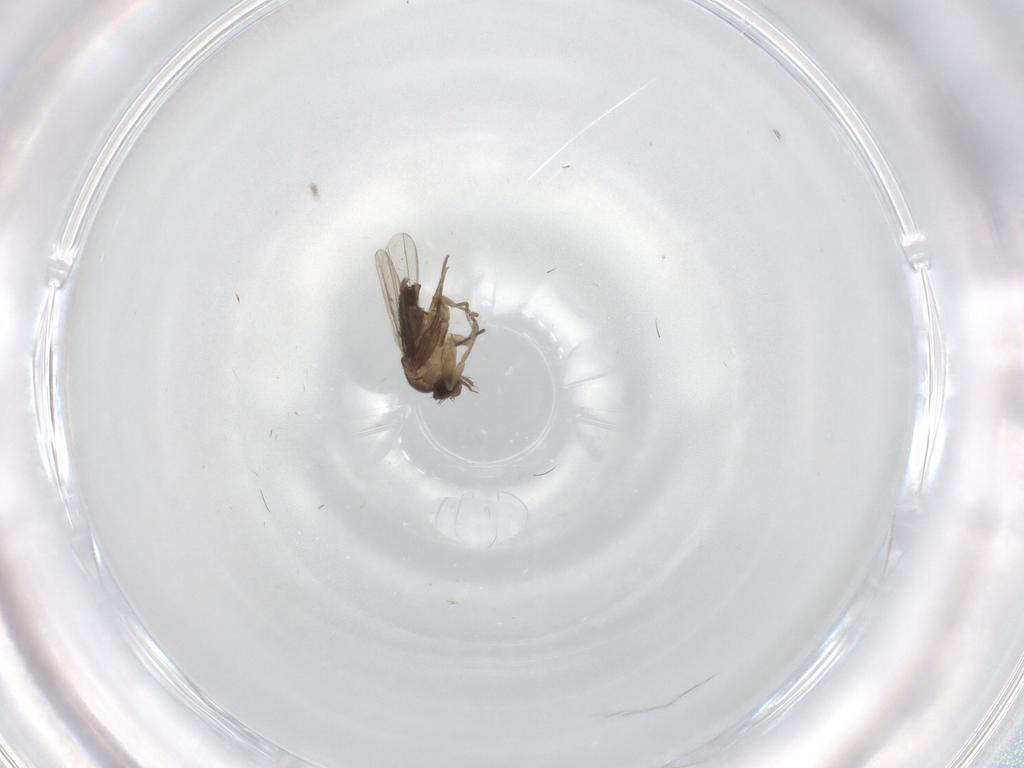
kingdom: Animalia
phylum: Arthropoda
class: Insecta
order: Diptera
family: Phoridae
